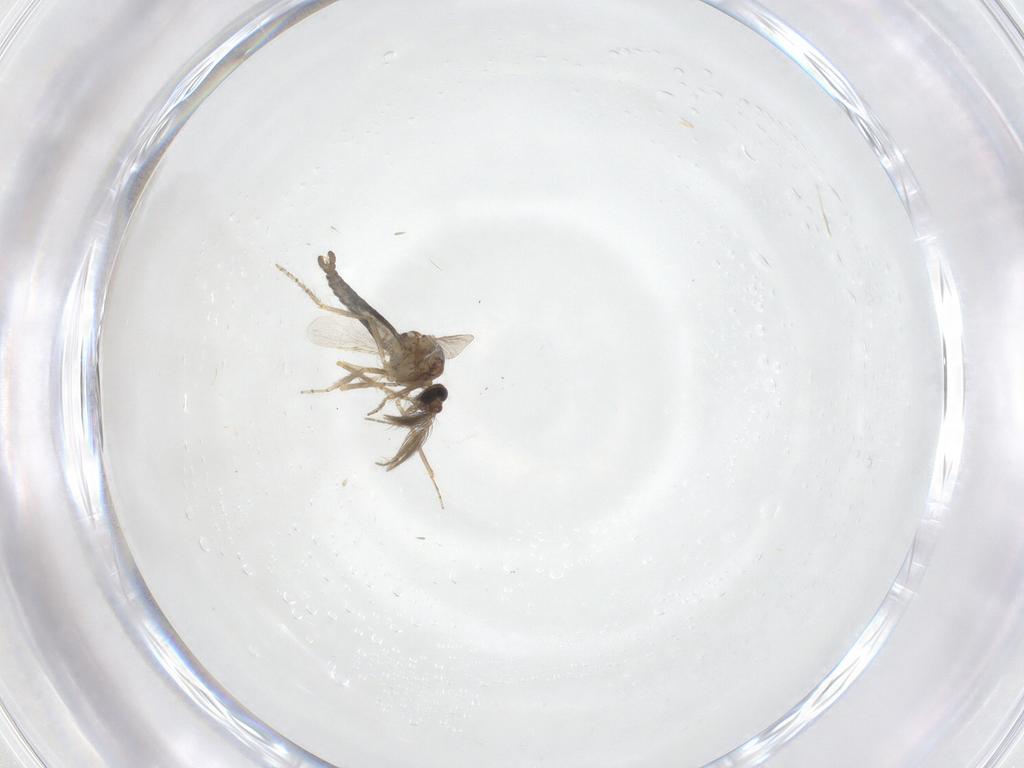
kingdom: Animalia
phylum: Arthropoda
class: Insecta
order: Diptera
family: Ceratopogonidae
